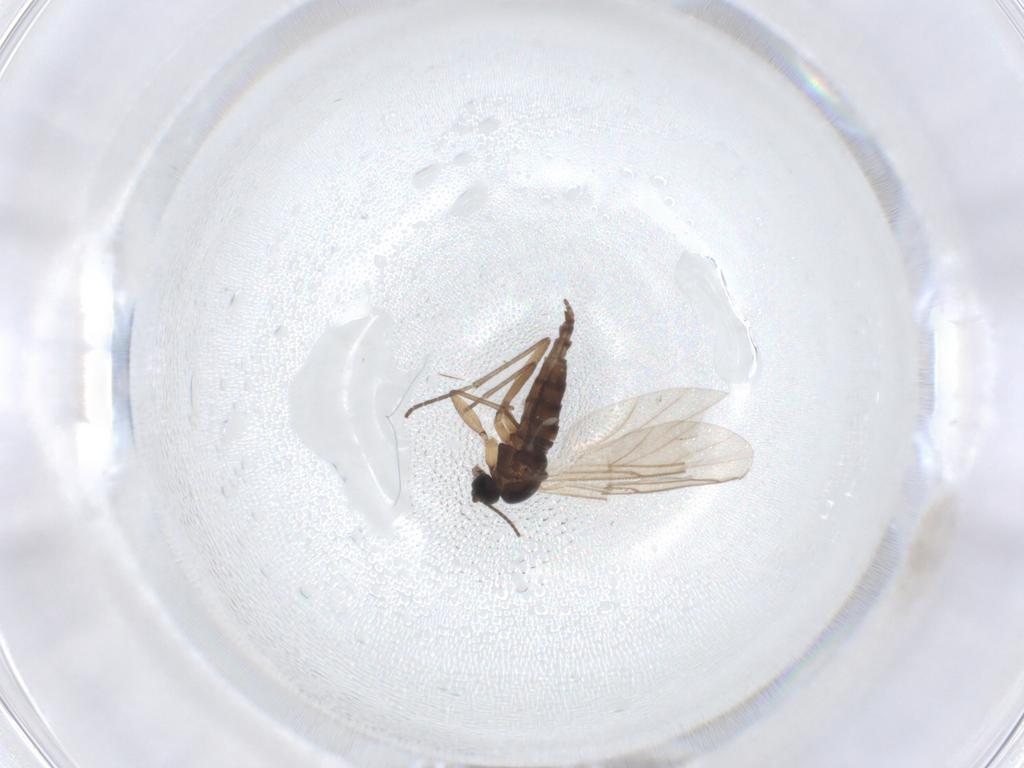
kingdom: Animalia
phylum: Arthropoda
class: Insecta
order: Diptera
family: Sciaridae
